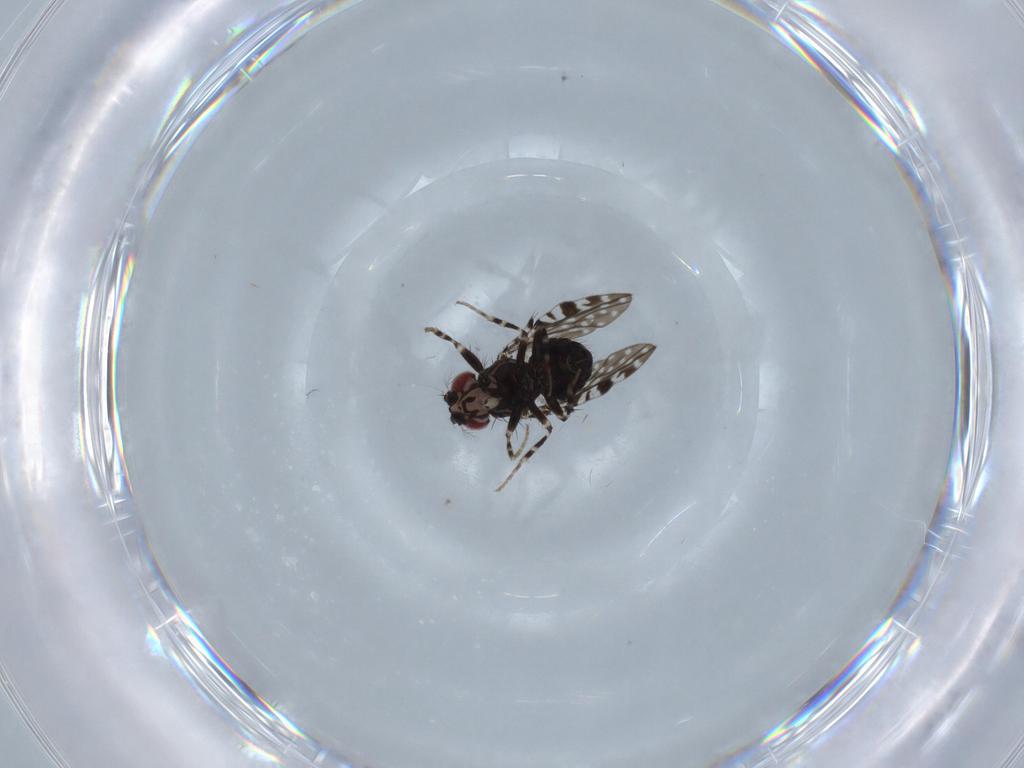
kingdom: Animalia
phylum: Arthropoda
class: Insecta
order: Diptera
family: Drosophilidae
